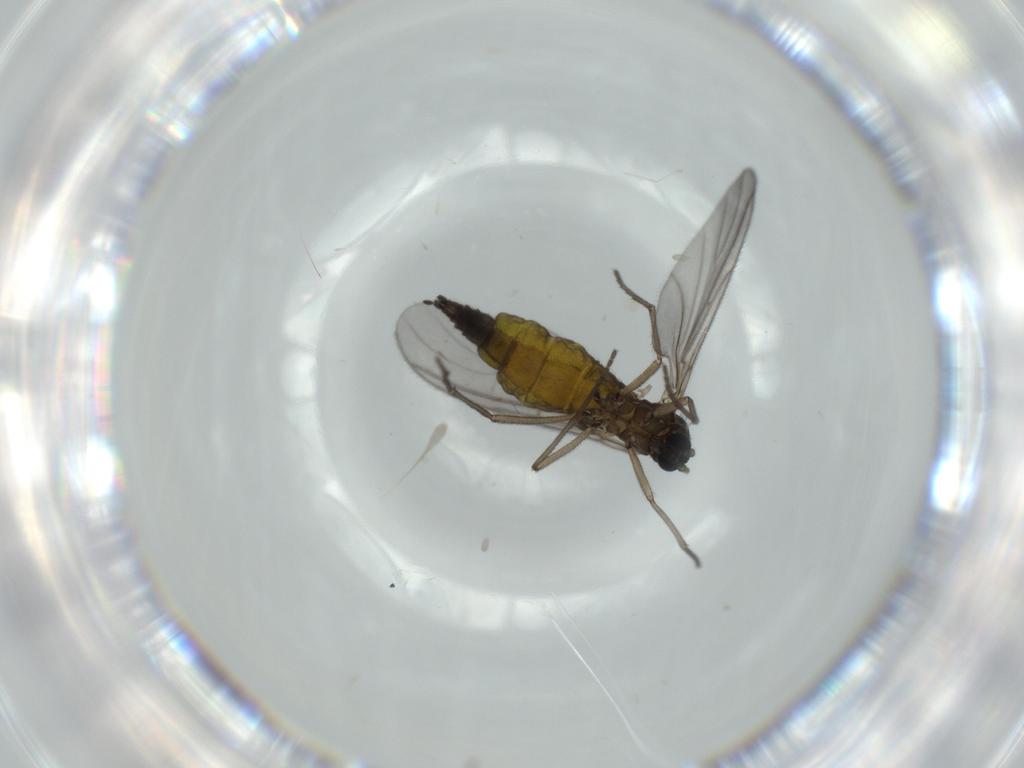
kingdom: Animalia
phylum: Arthropoda
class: Insecta
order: Diptera
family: Sciaridae
